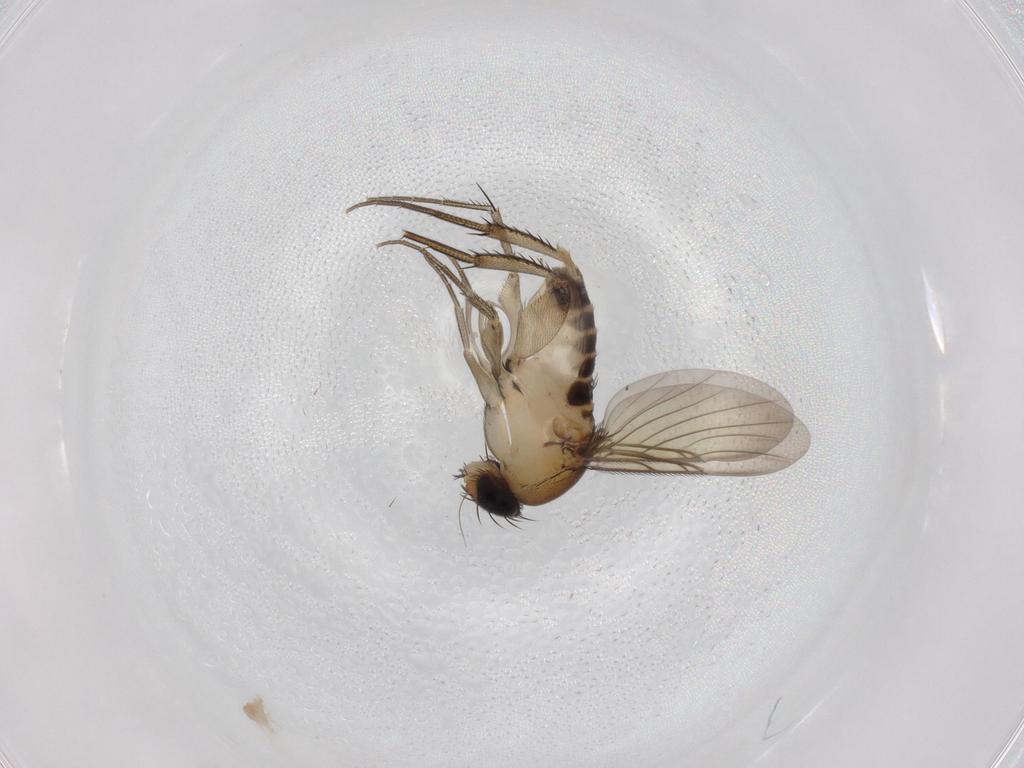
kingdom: Animalia
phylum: Arthropoda
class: Insecta
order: Diptera
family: Phoridae
